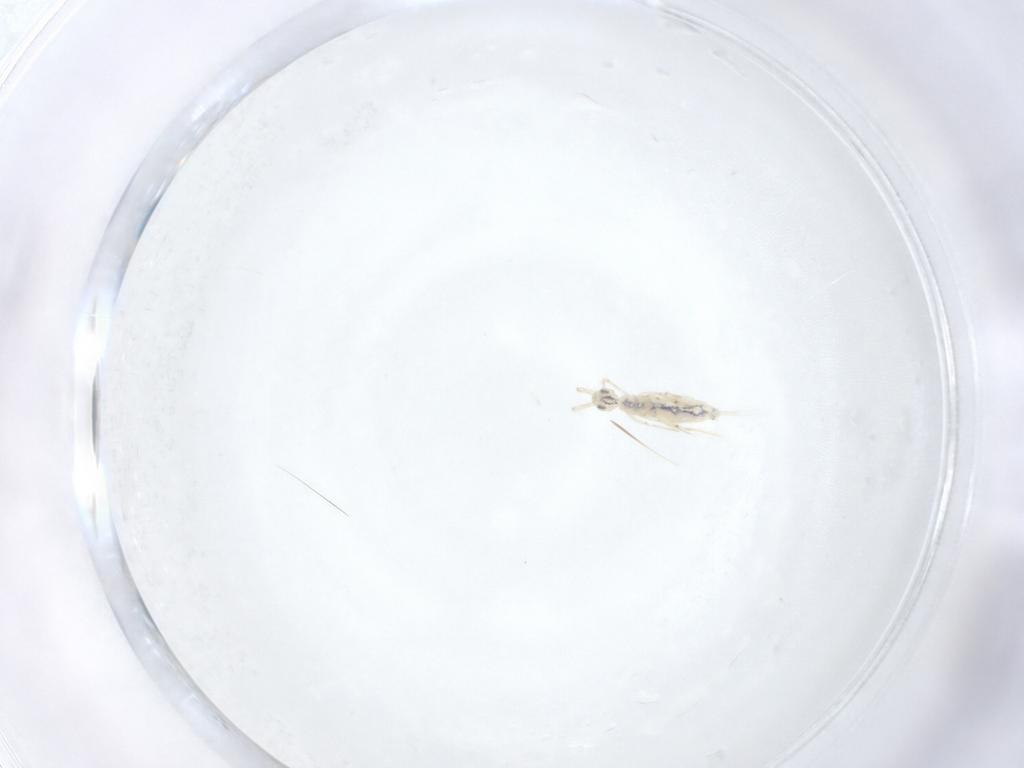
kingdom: Animalia
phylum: Arthropoda
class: Collembola
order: Entomobryomorpha
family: Entomobryidae
